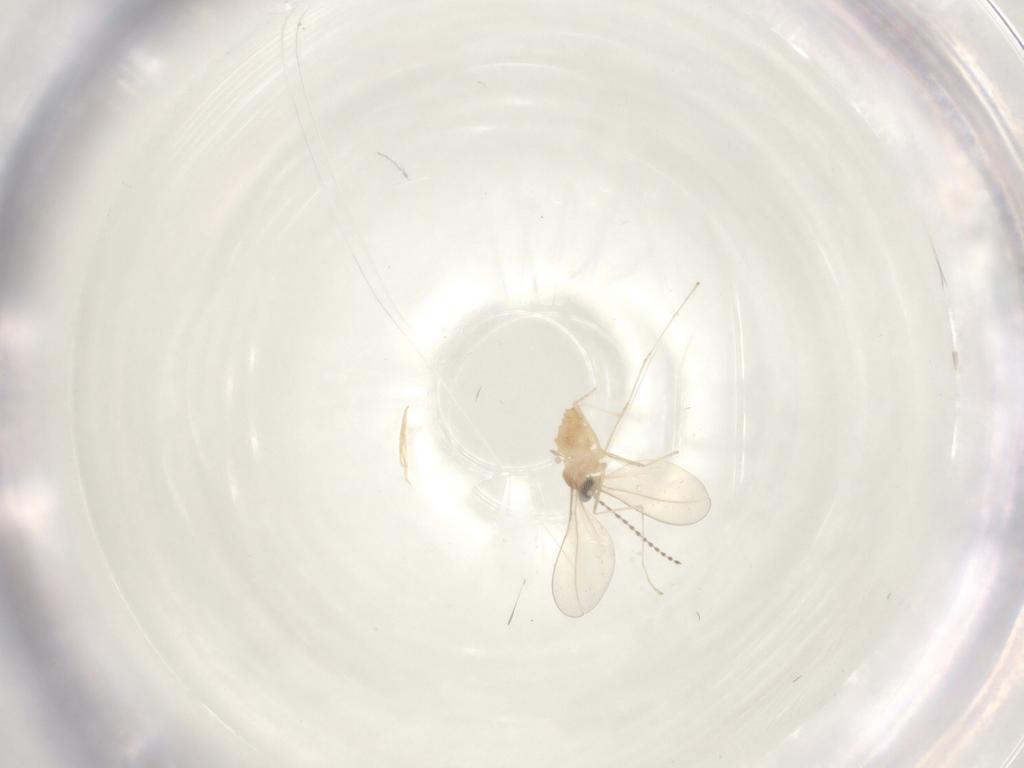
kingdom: Animalia
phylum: Arthropoda
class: Insecta
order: Diptera
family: Cecidomyiidae
